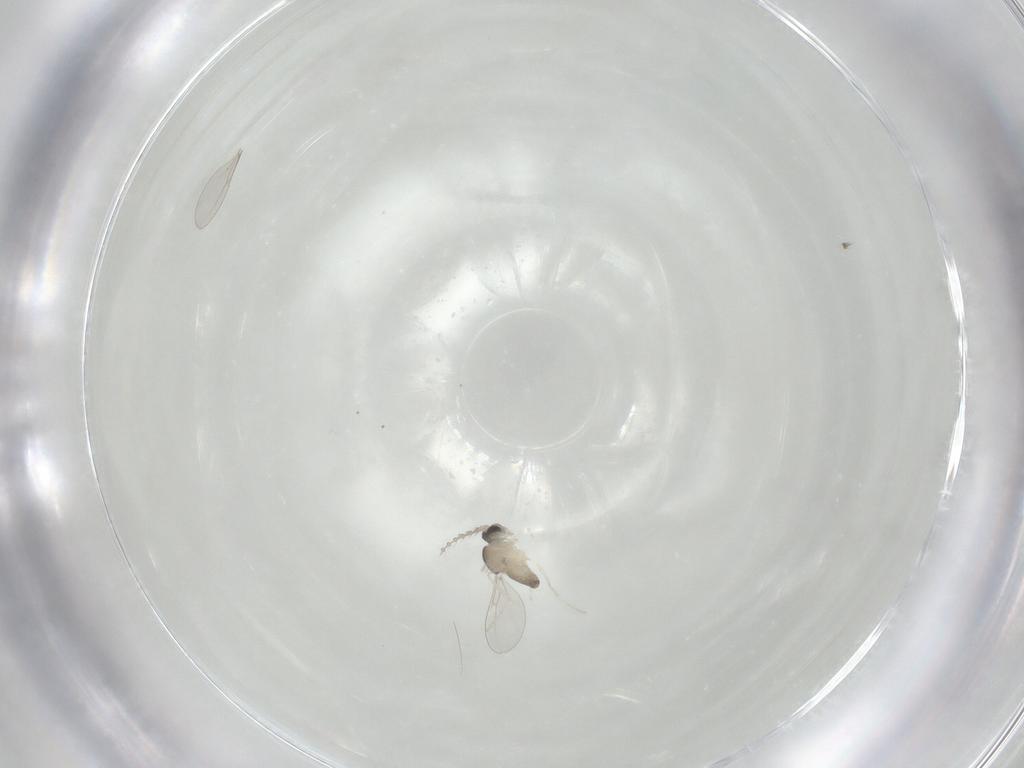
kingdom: Animalia
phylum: Arthropoda
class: Insecta
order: Diptera
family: Cecidomyiidae
